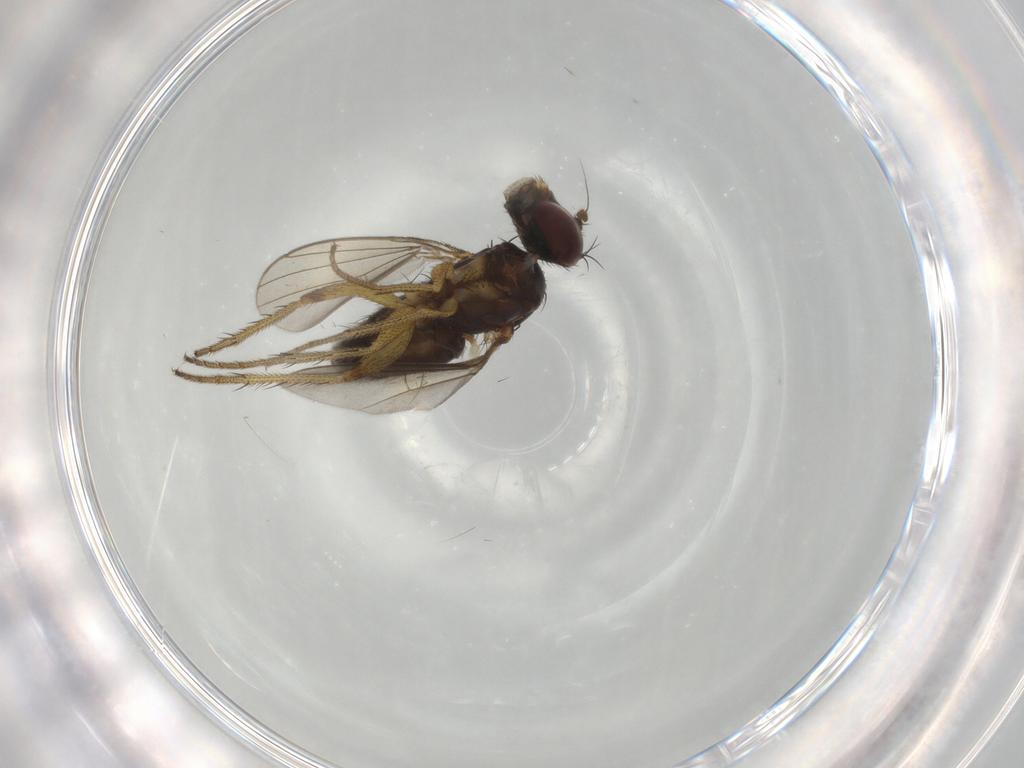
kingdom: Animalia
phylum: Arthropoda
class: Insecta
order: Diptera
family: Dolichopodidae
